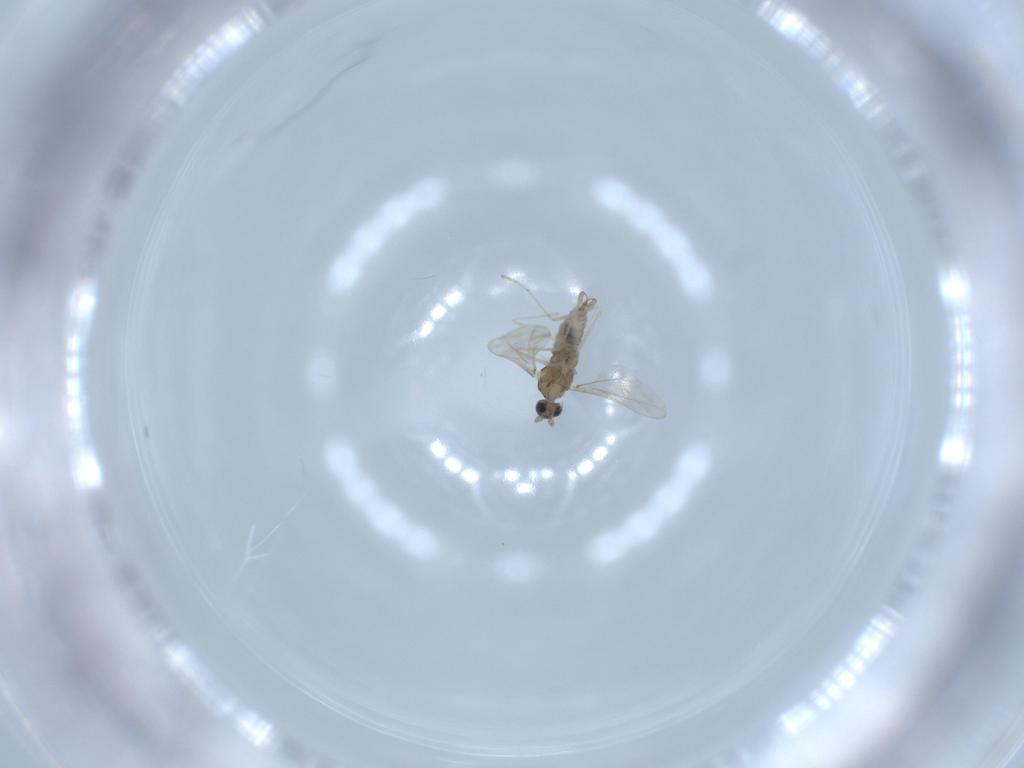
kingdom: Animalia
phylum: Arthropoda
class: Insecta
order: Diptera
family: Cecidomyiidae
